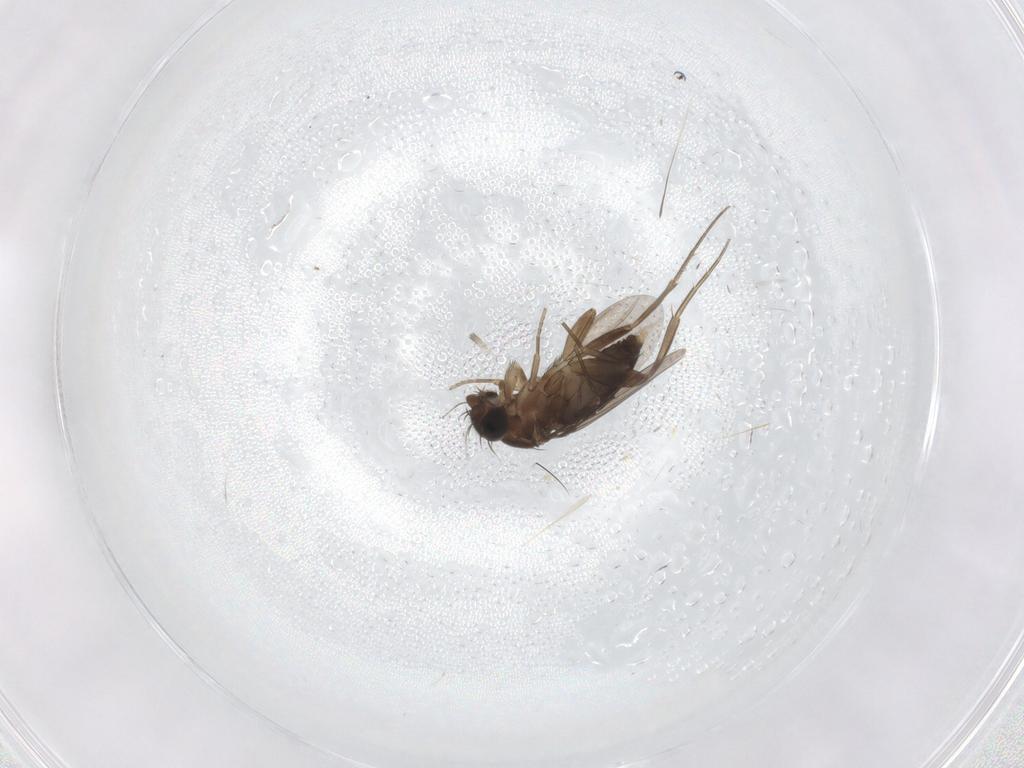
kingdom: Animalia
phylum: Arthropoda
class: Insecta
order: Diptera
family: Phoridae
